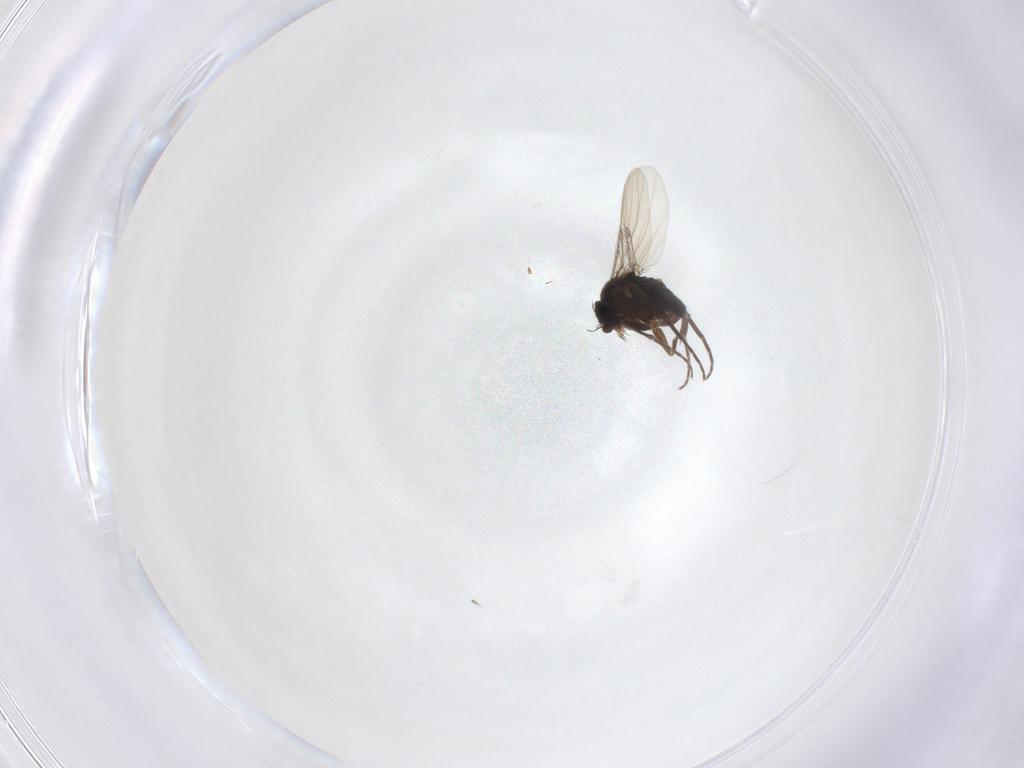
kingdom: Animalia
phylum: Arthropoda
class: Insecta
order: Diptera
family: Phoridae
